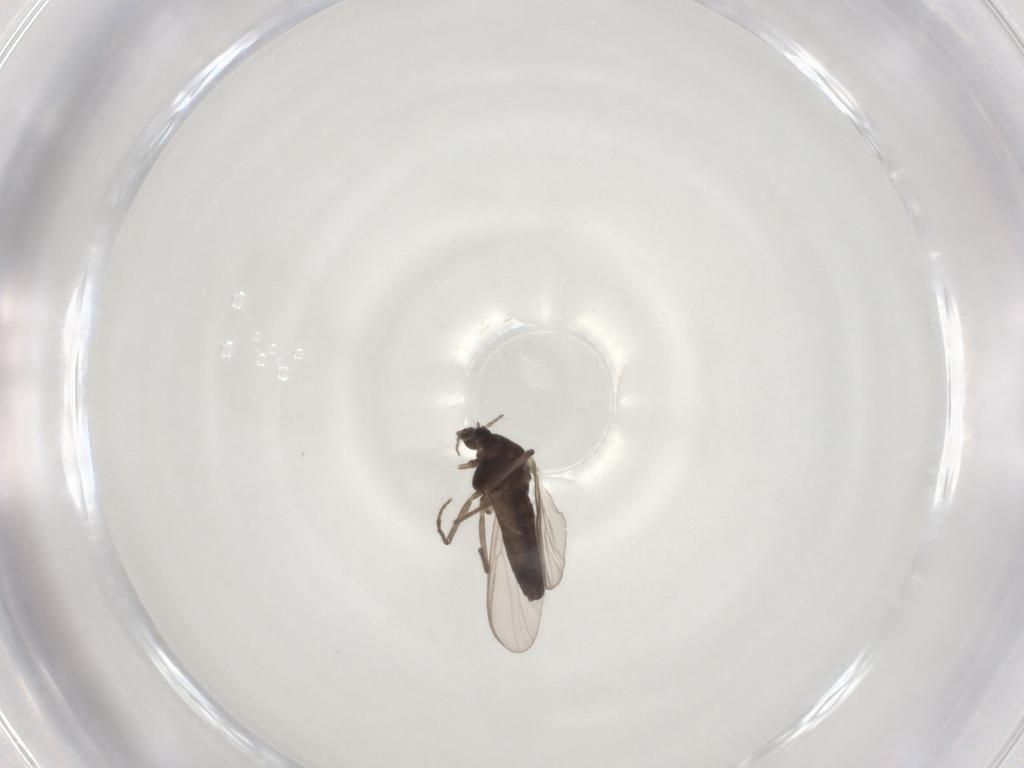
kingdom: Animalia
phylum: Arthropoda
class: Insecta
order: Diptera
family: Chironomidae
